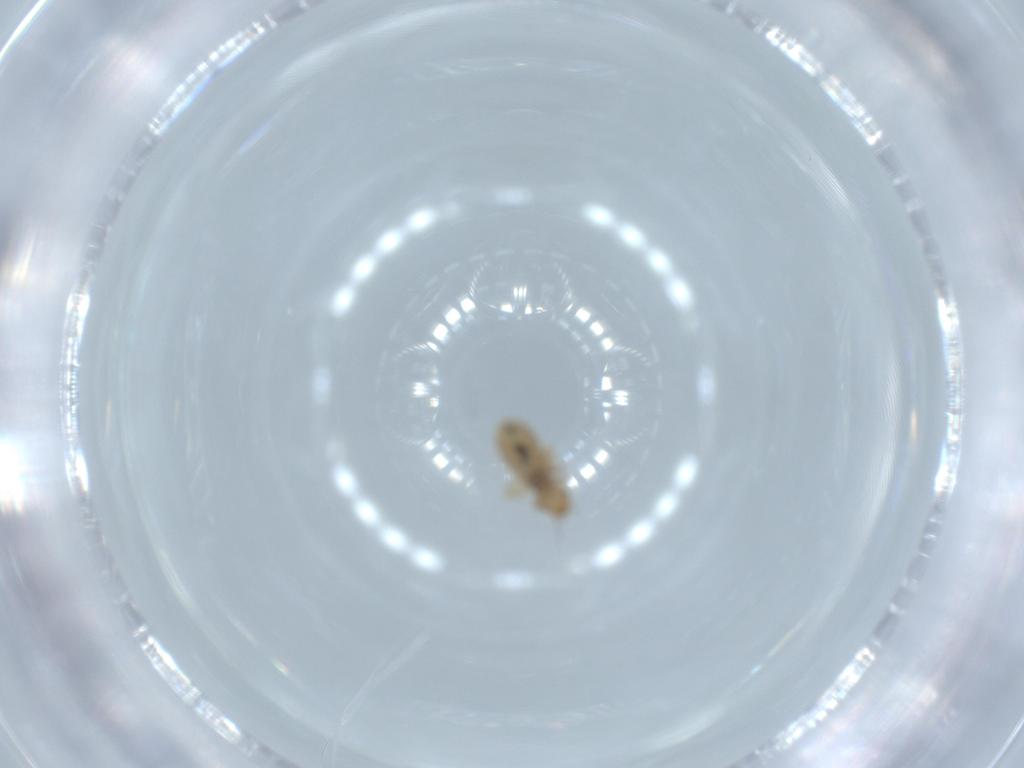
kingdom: Animalia
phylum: Arthropoda
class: Insecta
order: Psocodea
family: Liposcelididae
